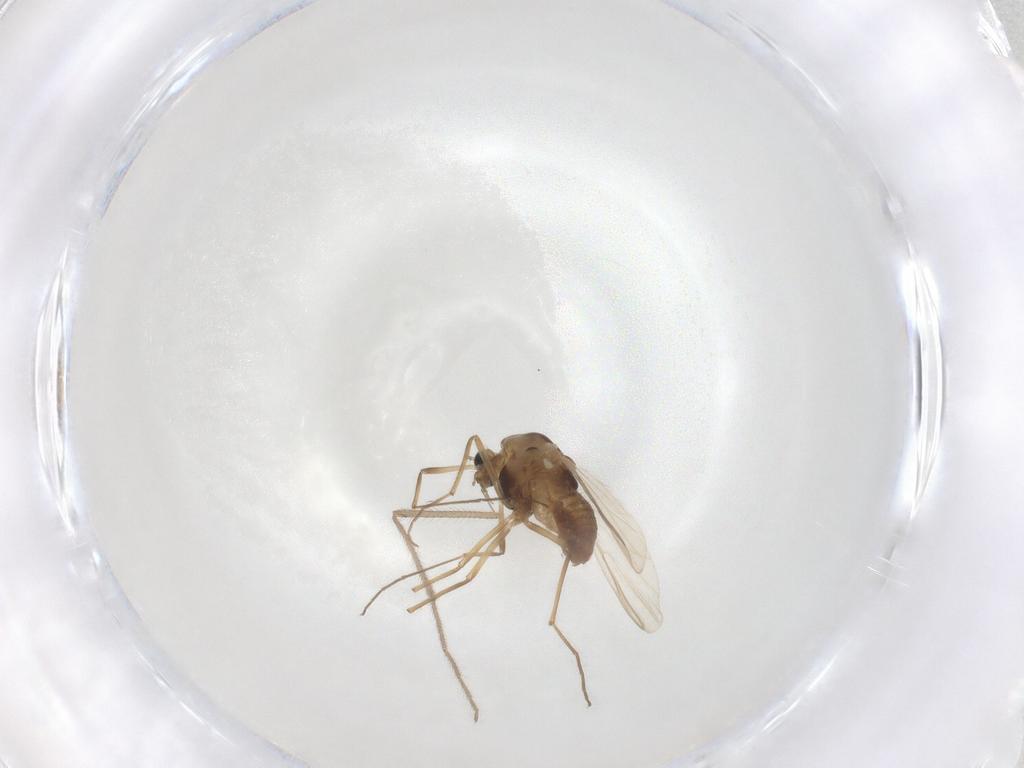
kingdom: Animalia
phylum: Arthropoda
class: Insecta
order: Diptera
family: Chironomidae
